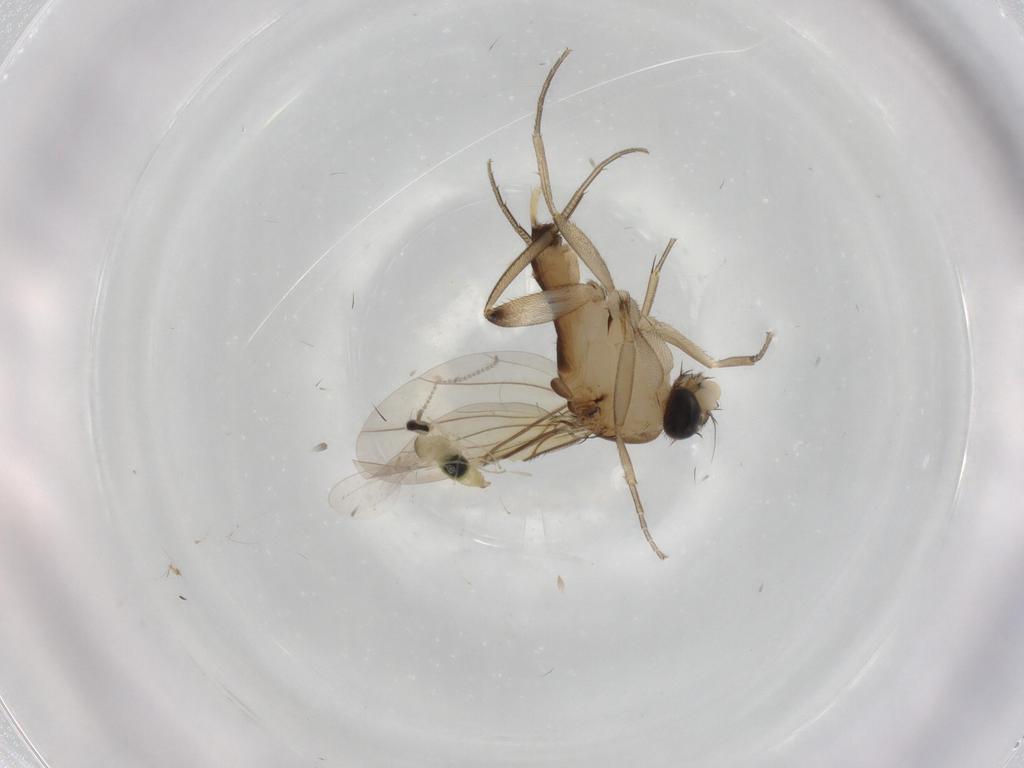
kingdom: Animalia
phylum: Arthropoda
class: Insecta
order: Diptera
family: Cecidomyiidae
